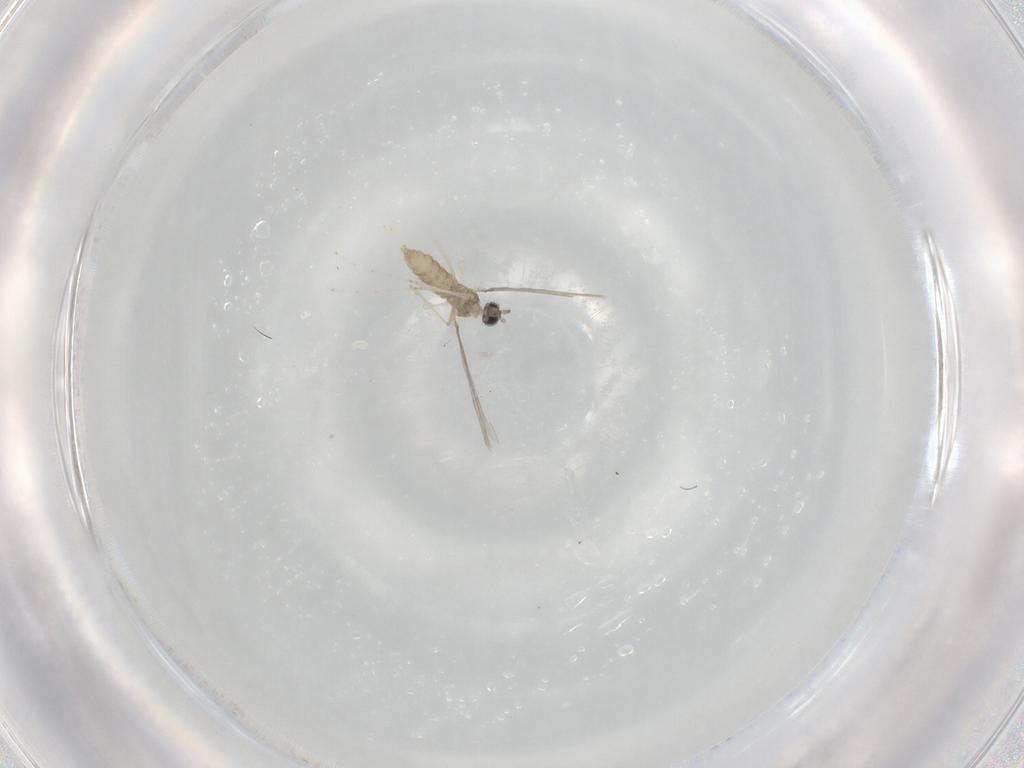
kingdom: Animalia
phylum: Arthropoda
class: Insecta
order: Diptera
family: Cecidomyiidae
